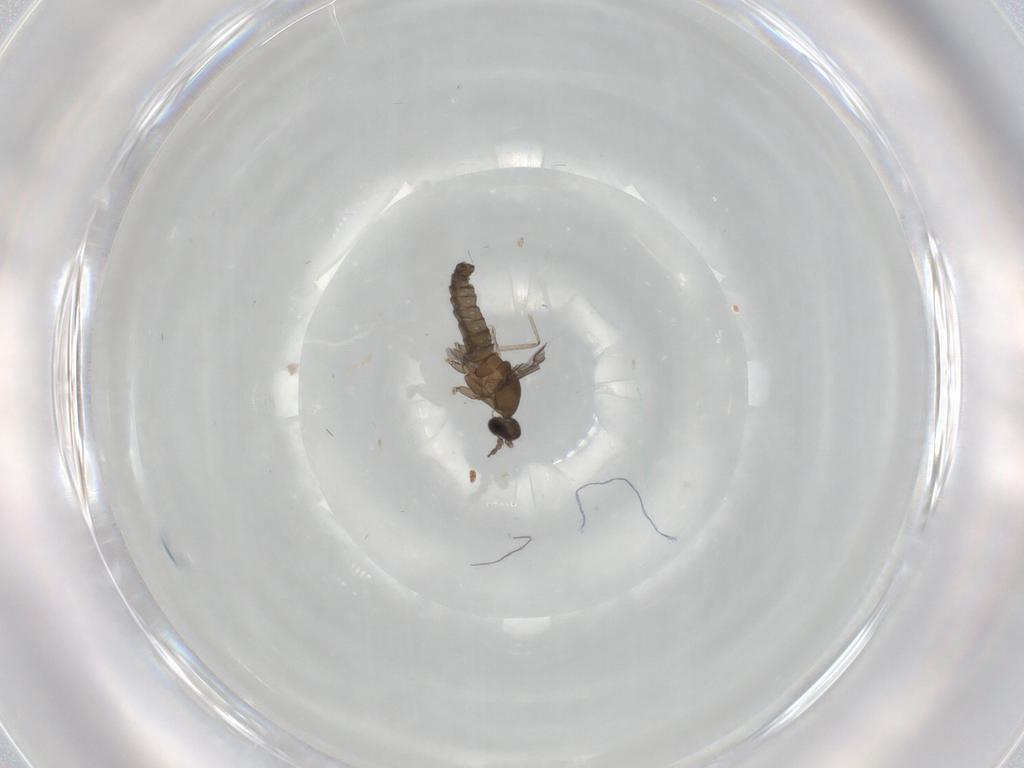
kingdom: Animalia
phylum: Arthropoda
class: Insecta
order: Diptera
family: Cecidomyiidae
